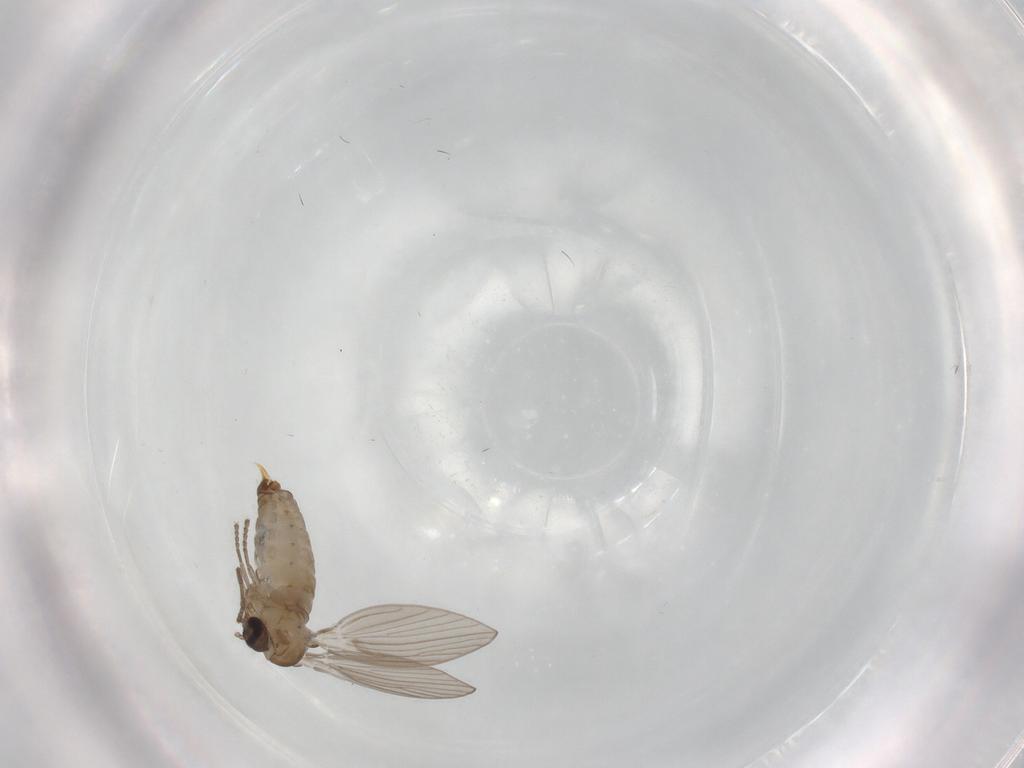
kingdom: Animalia
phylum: Arthropoda
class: Insecta
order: Diptera
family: Psychodidae
